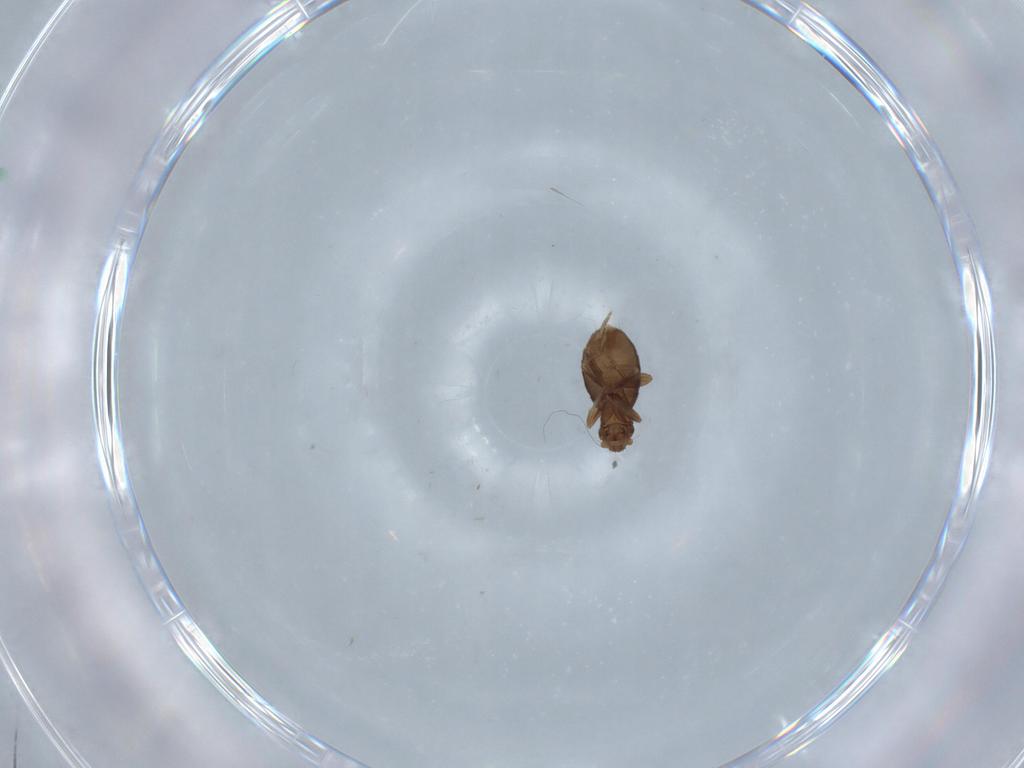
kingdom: Animalia
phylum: Arthropoda
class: Insecta
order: Diptera
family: Phoridae
